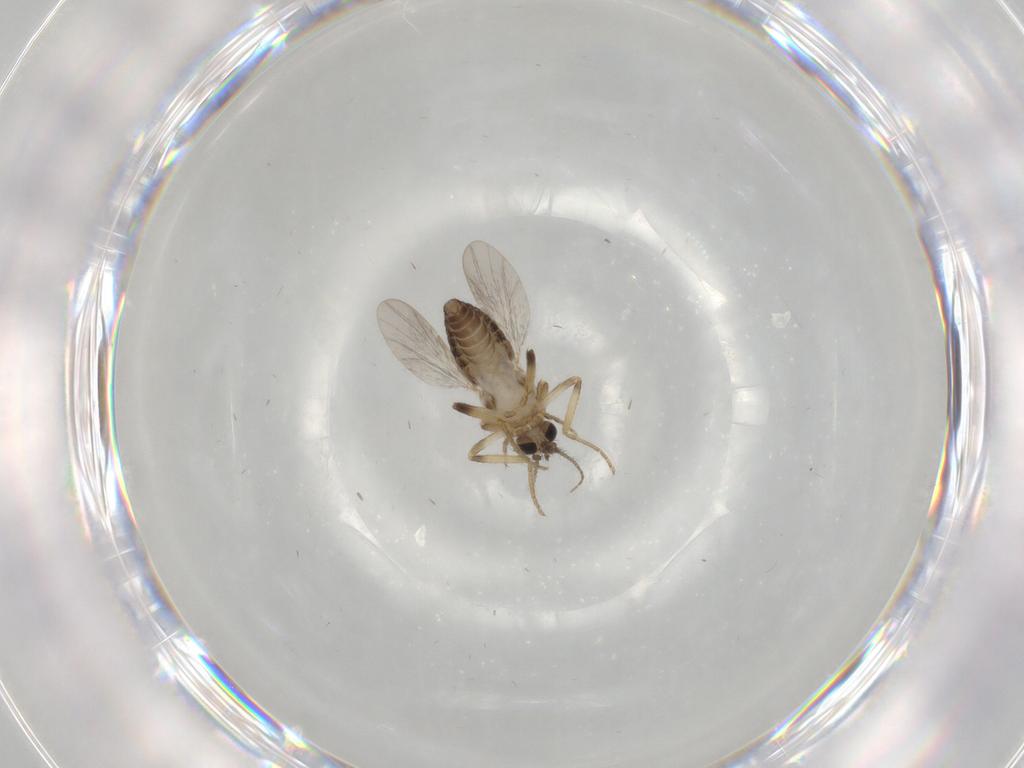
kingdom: Animalia
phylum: Arthropoda
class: Insecta
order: Diptera
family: Ceratopogonidae
